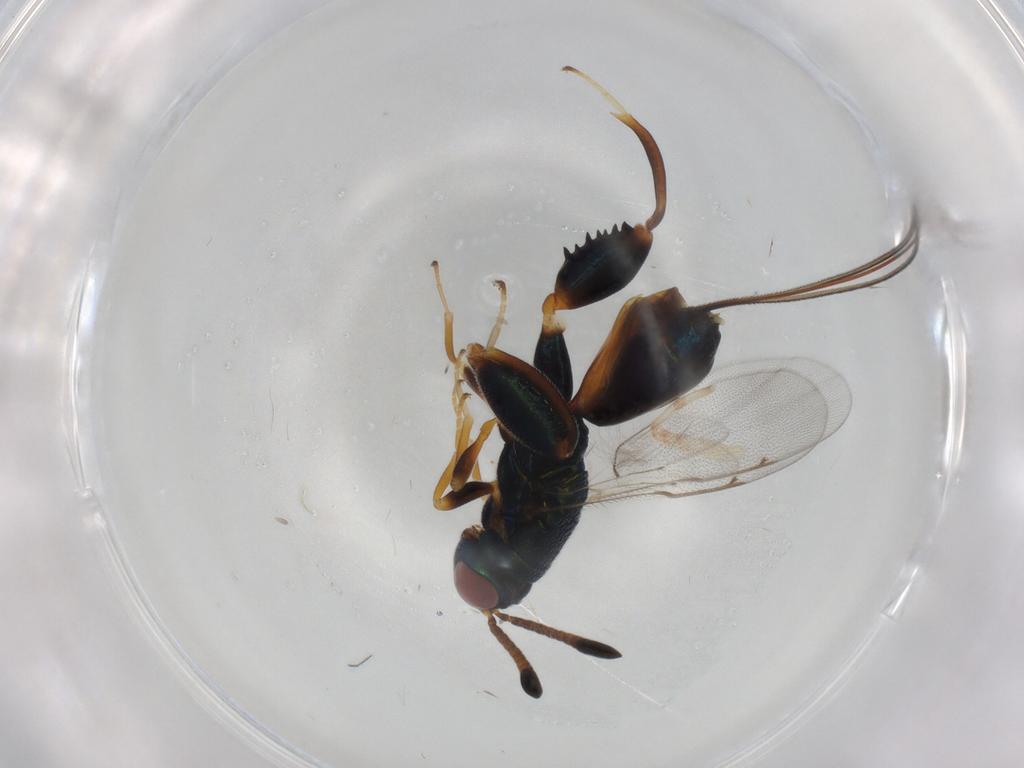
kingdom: Animalia
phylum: Arthropoda
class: Insecta
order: Hymenoptera
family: Torymidae
